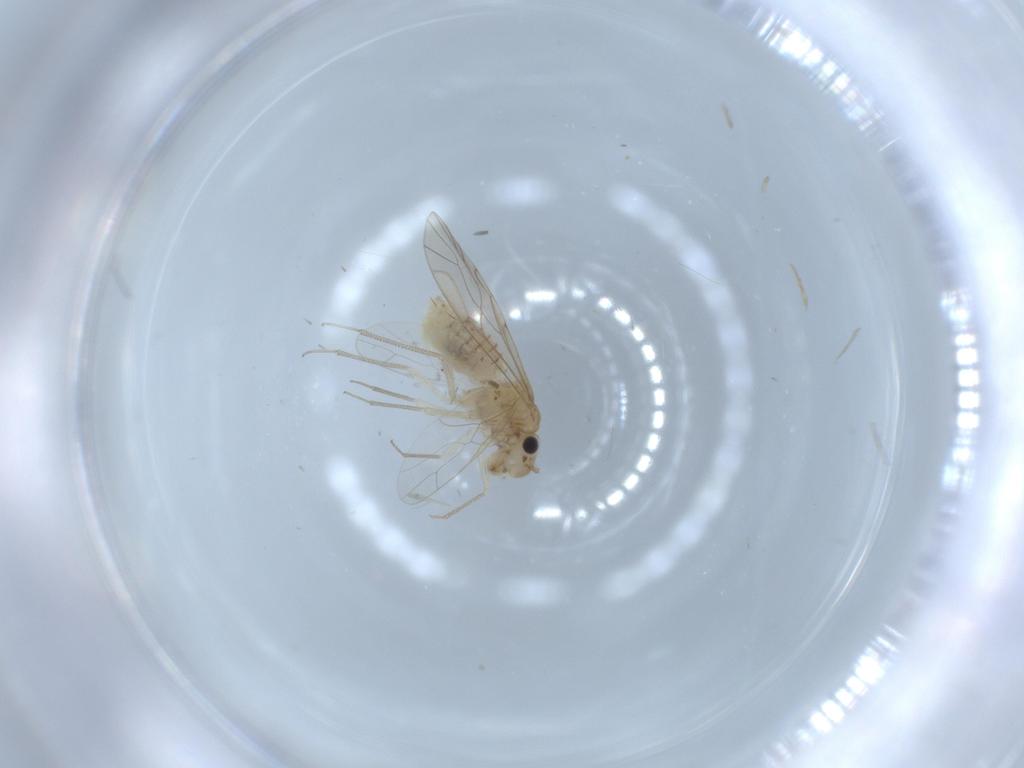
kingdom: Animalia
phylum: Arthropoda
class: Insecta
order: Psocodea
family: Lachesillidae
